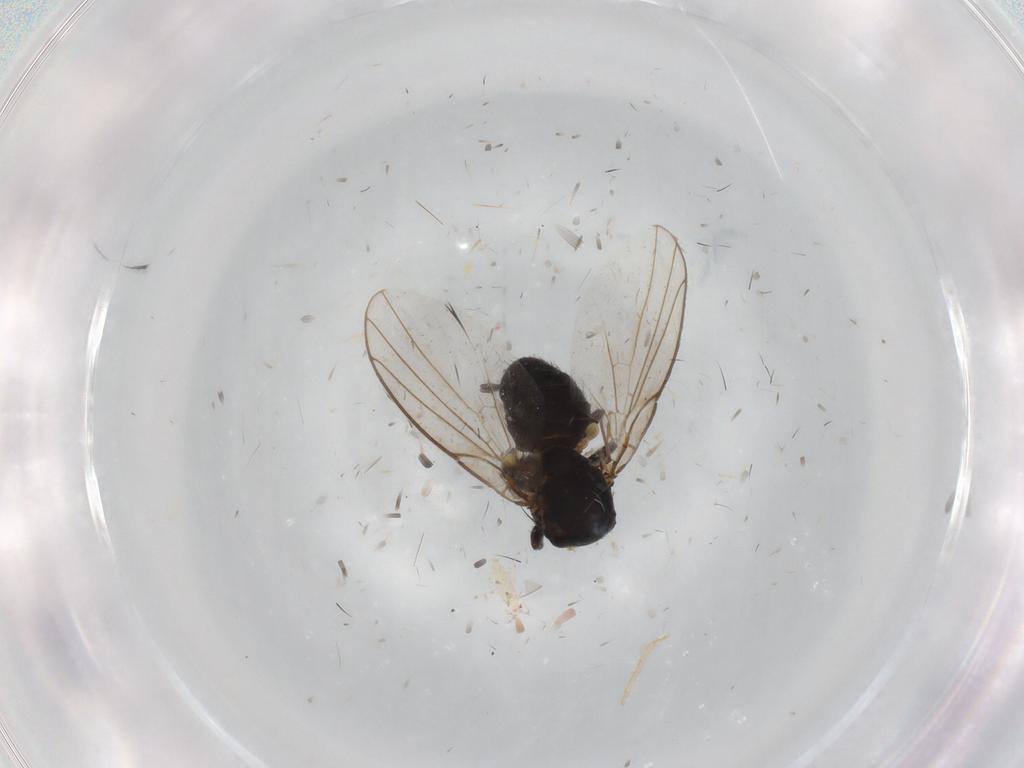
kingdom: Animalia
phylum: Arthropoda
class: Insecta
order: Diptera
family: Agromyzidae
